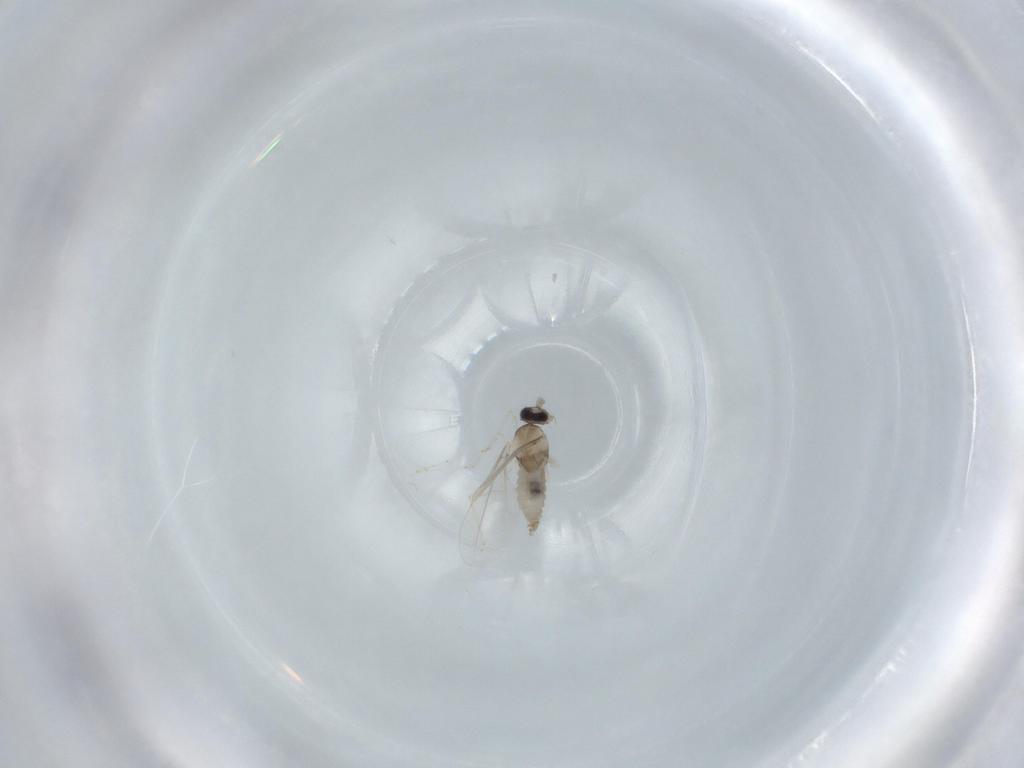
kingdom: Animalia
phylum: Arthropoda
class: Insecta
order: Diptera
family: Cecidomyiidae
